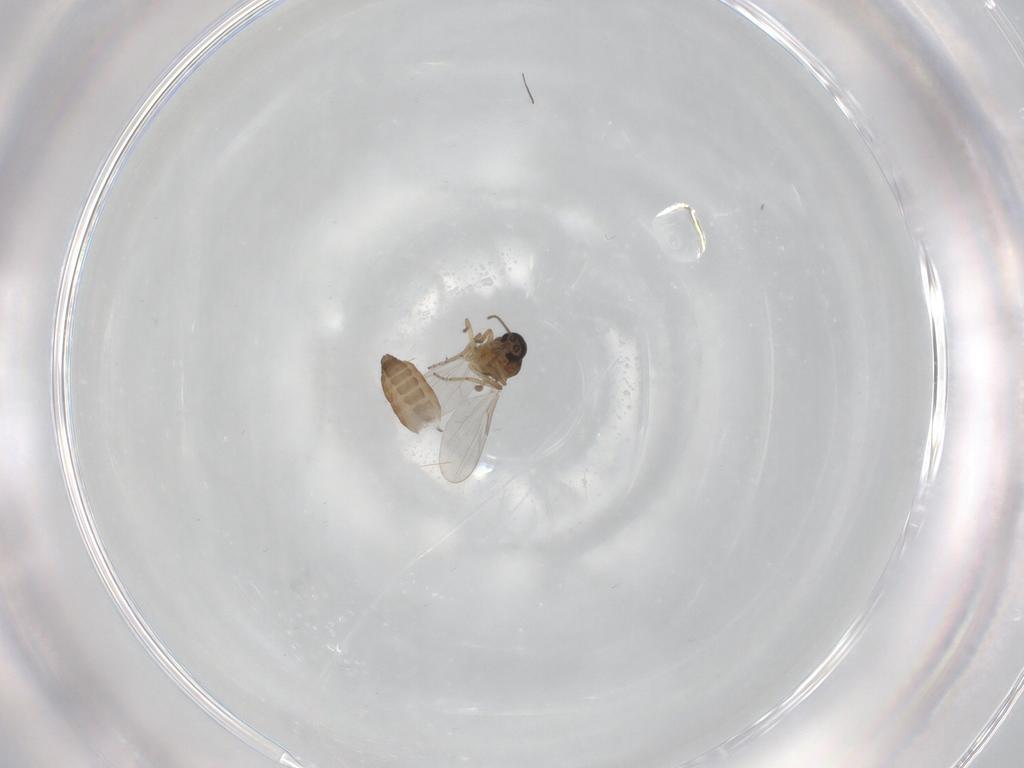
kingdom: Animalia
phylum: Arthropoda
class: Insecta
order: Diptera
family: Ceratopogonidae
